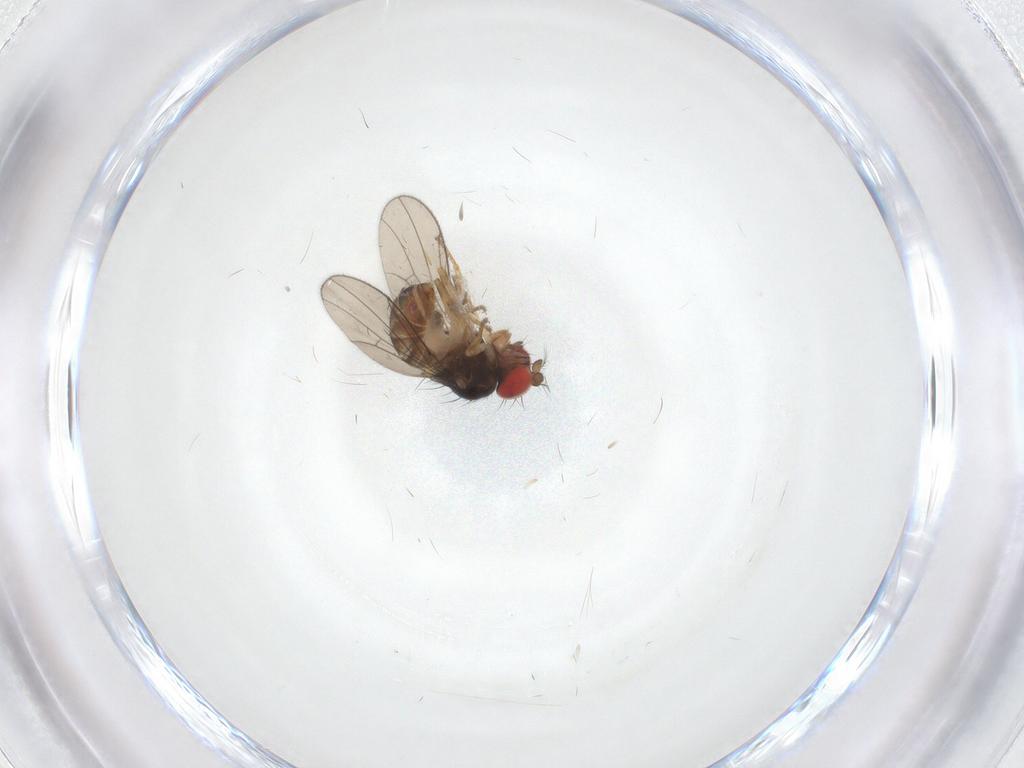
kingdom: Animalia
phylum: Arthropoda
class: Insecta
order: Diptera
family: Drosophilidae
